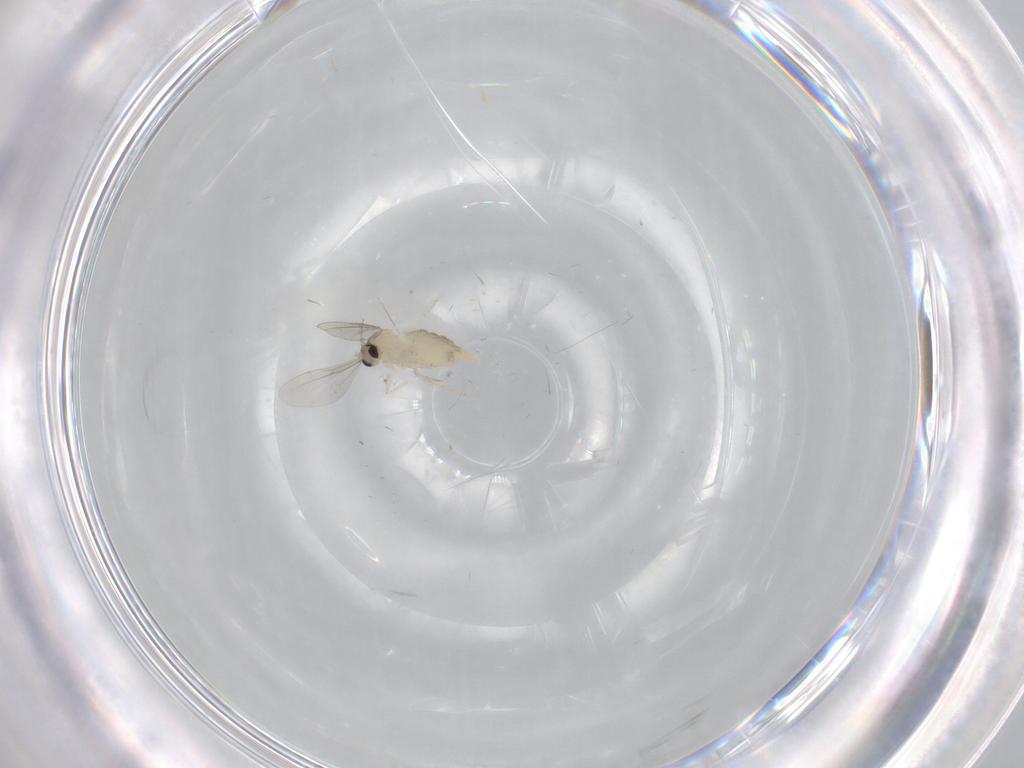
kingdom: Animalia
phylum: Arthropoda
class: Insecta
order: Diptera
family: Cecidomyiidae
